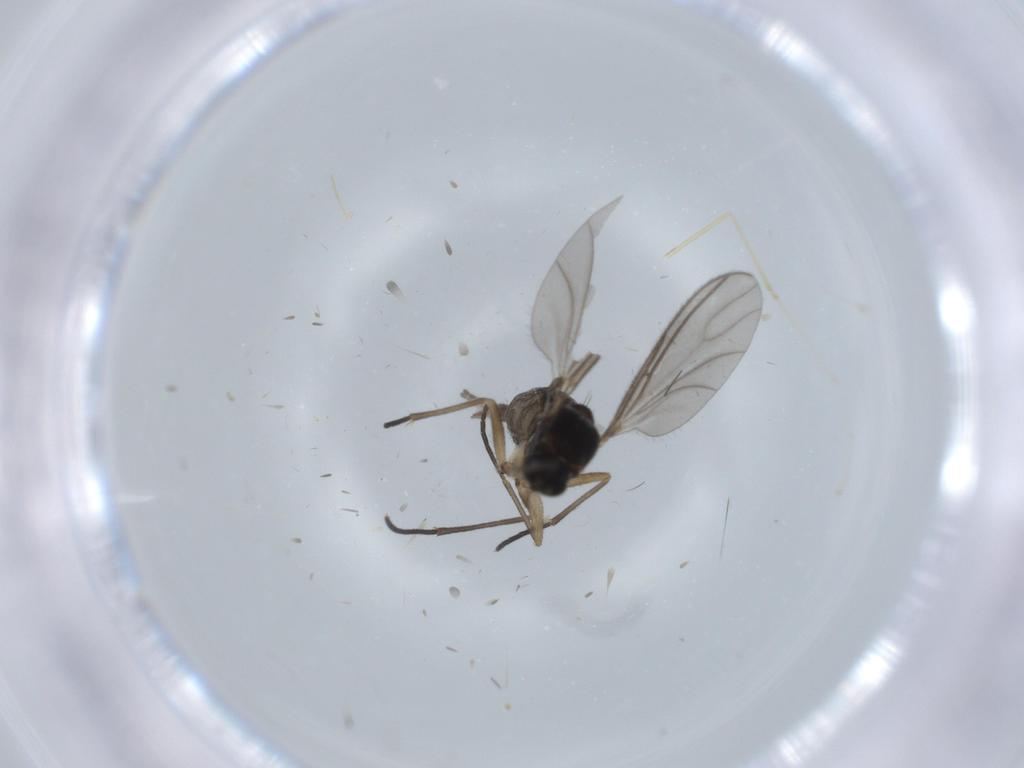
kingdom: Animalia
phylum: Arthropoda
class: Insecta
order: Diptera
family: Sciaridae
